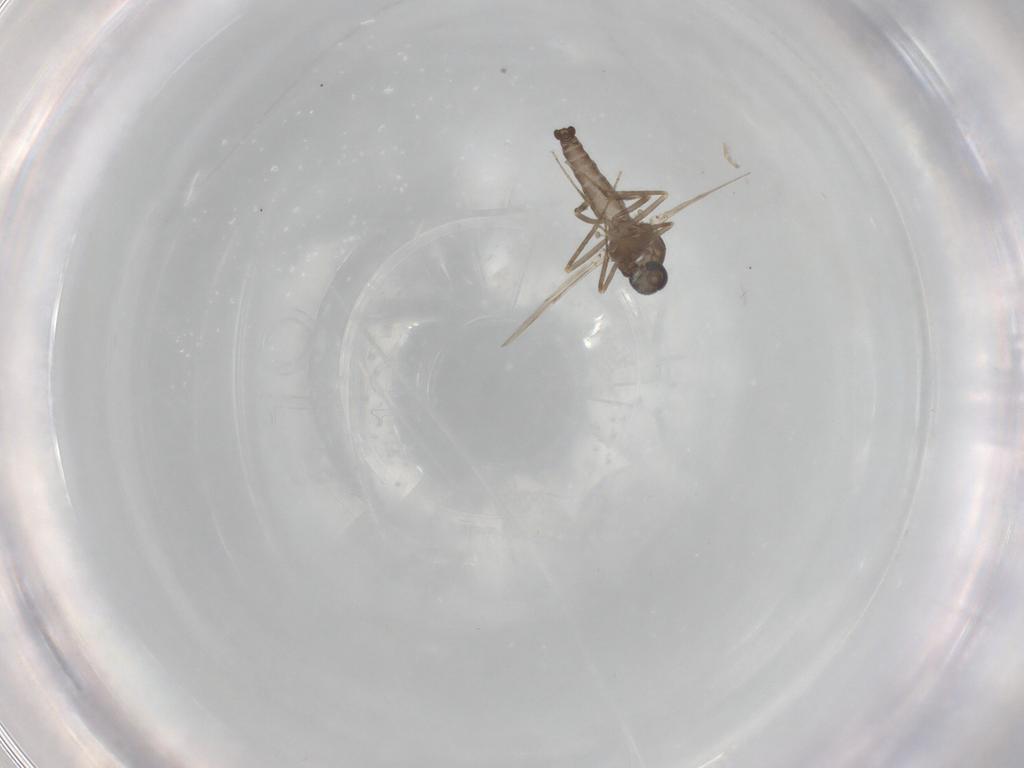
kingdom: Animalia
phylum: Arthropoda
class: Insecta
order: Diptera
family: Ceratopogonidae
